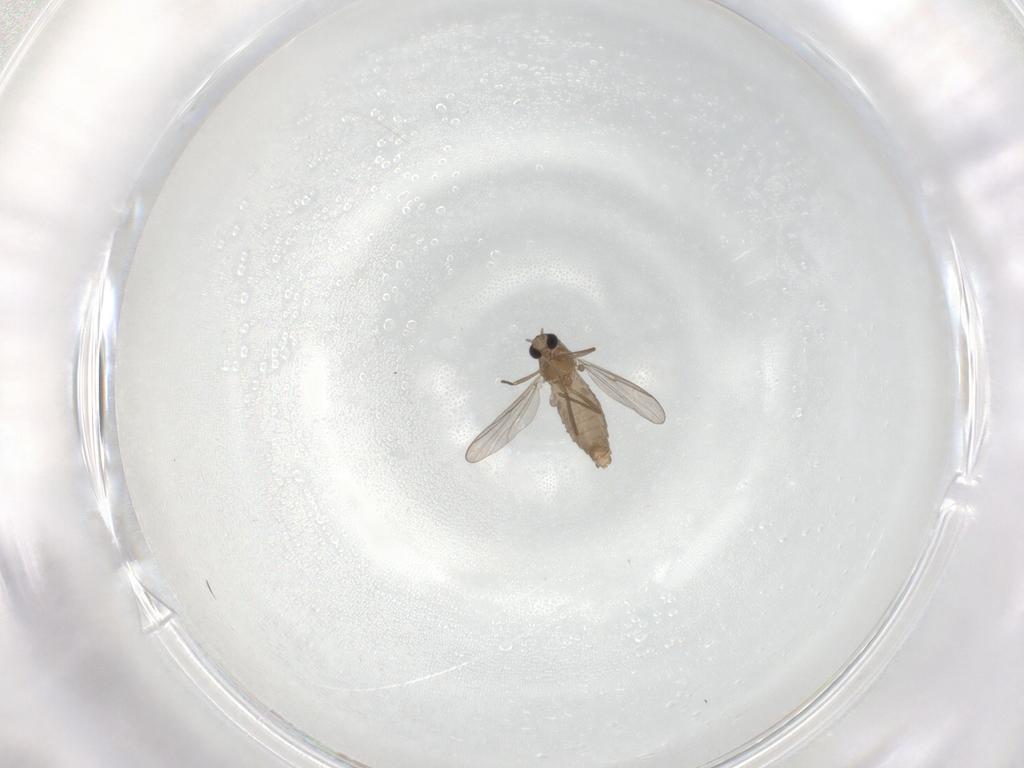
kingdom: Animalia
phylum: Arthropoda
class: Insecta
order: Diptera
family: Chironomidae
